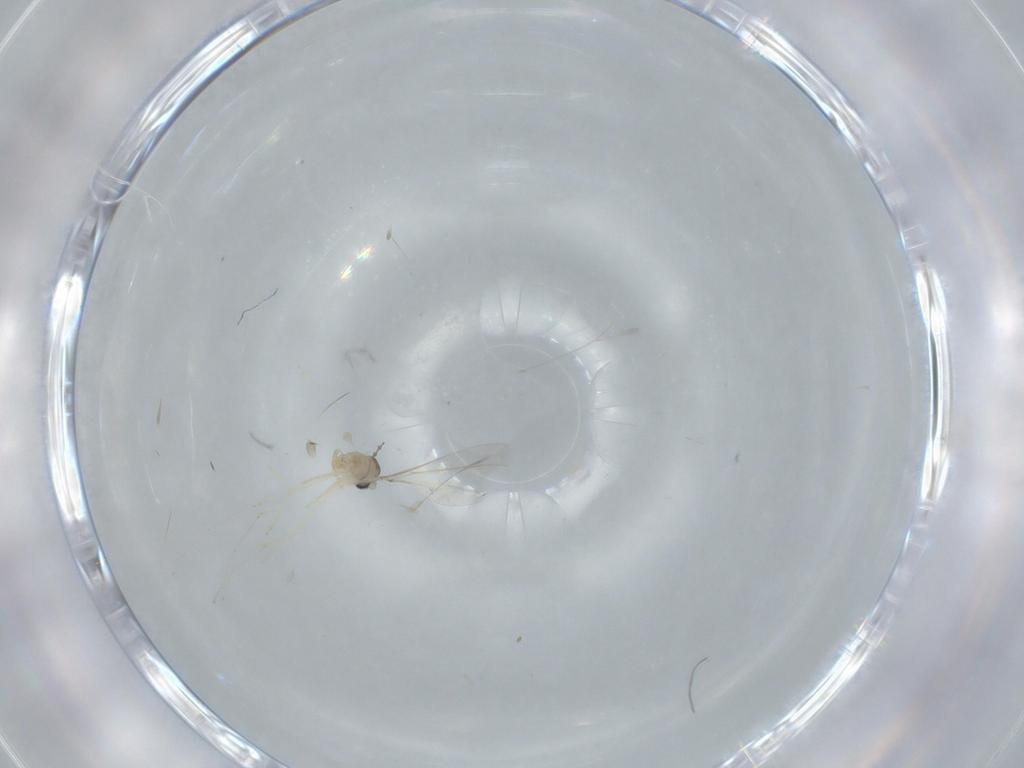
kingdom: Animalia
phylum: Arthropoda
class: Insecta
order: Diptera
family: Cecidomyiidae
